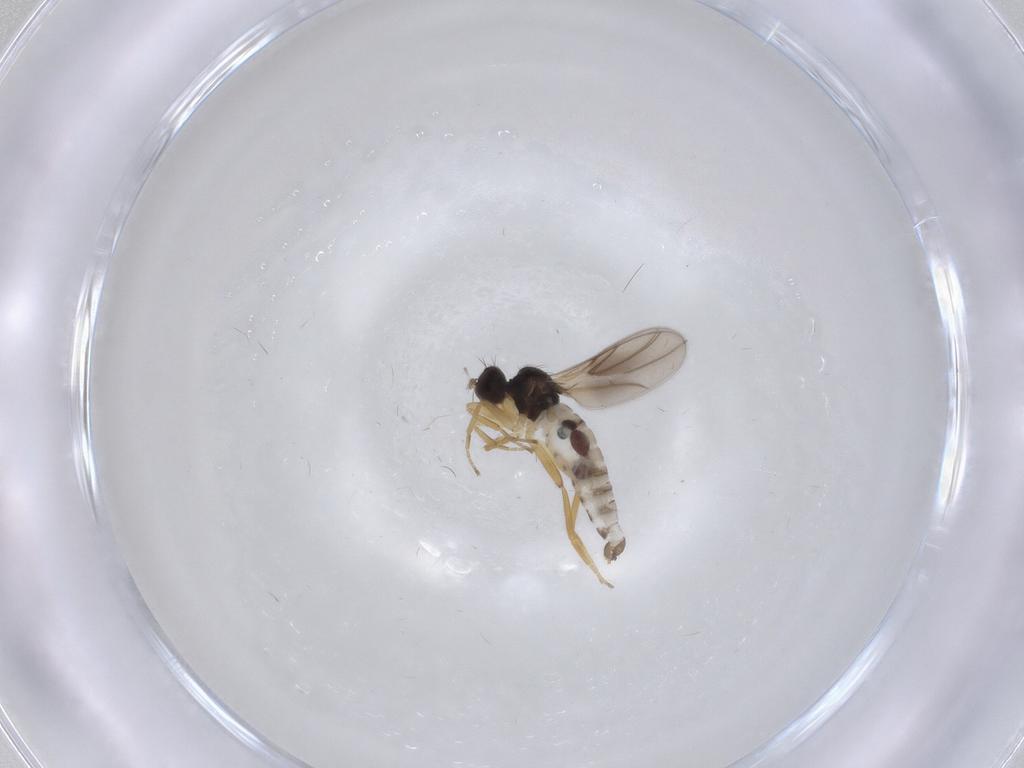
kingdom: Animalia
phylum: Arthropoda
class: Insecta
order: Diptera
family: Hybotidae
